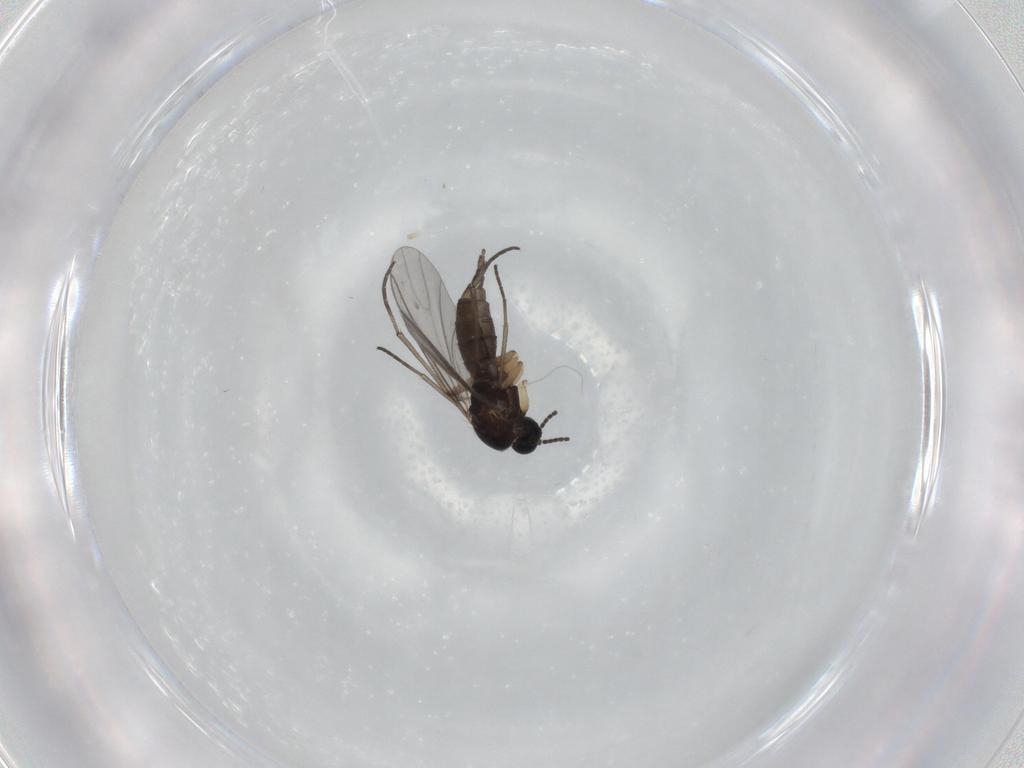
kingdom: Animalia
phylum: Arthropoda
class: Insecta
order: Diptera
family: Sciaridae
